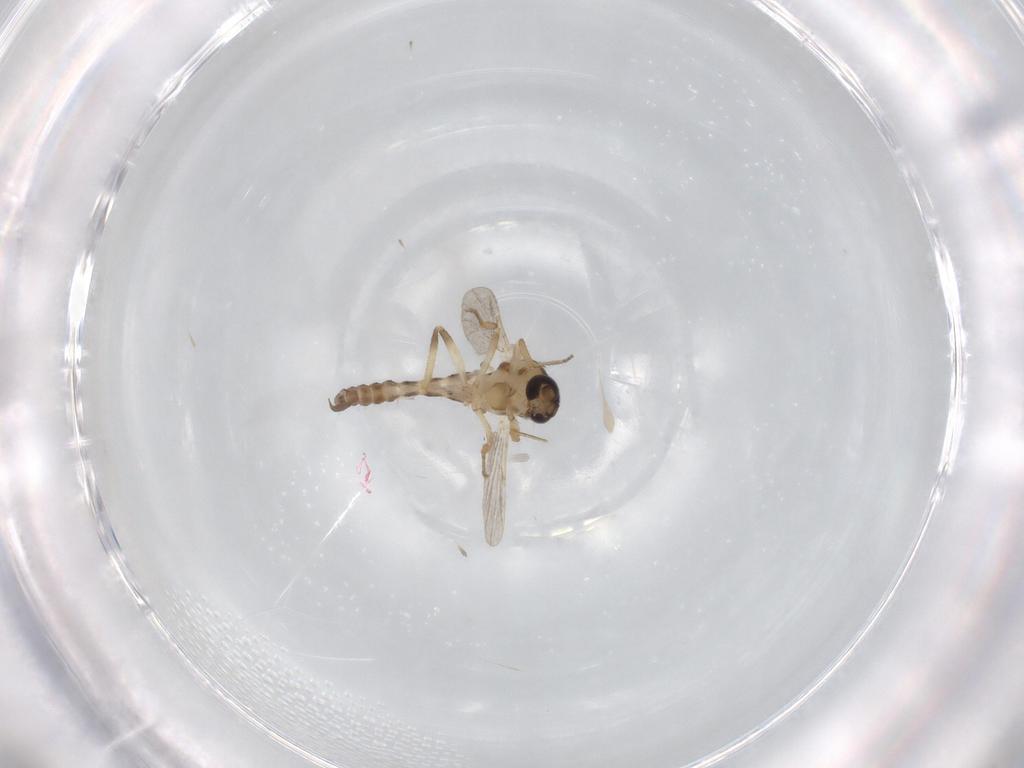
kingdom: Animalia
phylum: Arthropoda
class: Insecta
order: Diptera
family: Ceratopogonidae
